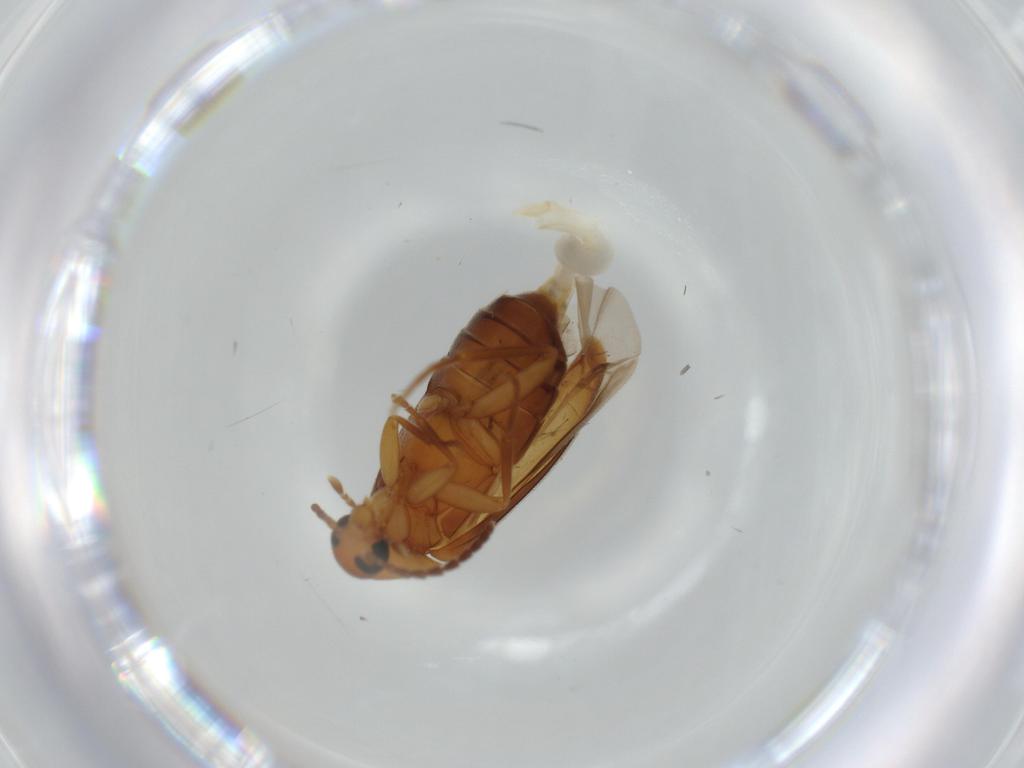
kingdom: Animalia
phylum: Arthropoda
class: Insecta
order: Coleoptera
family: Scraptiidae
